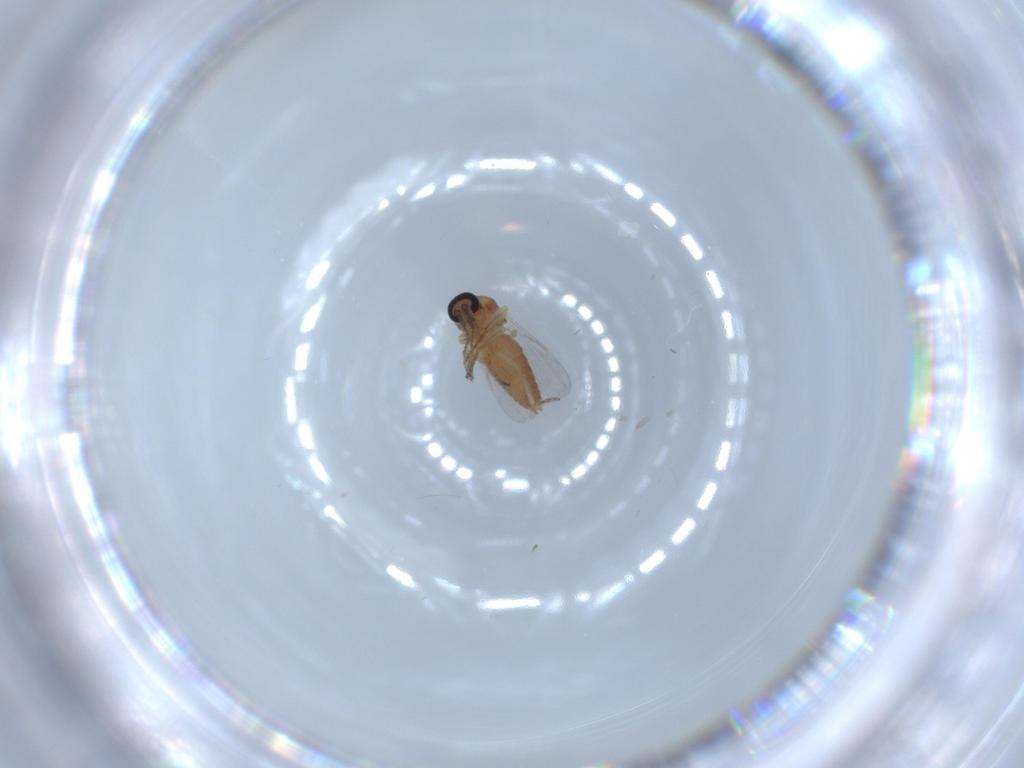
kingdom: Animalia
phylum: Arthropoda
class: Insecta
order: Diptera
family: Ceratopogonidae
